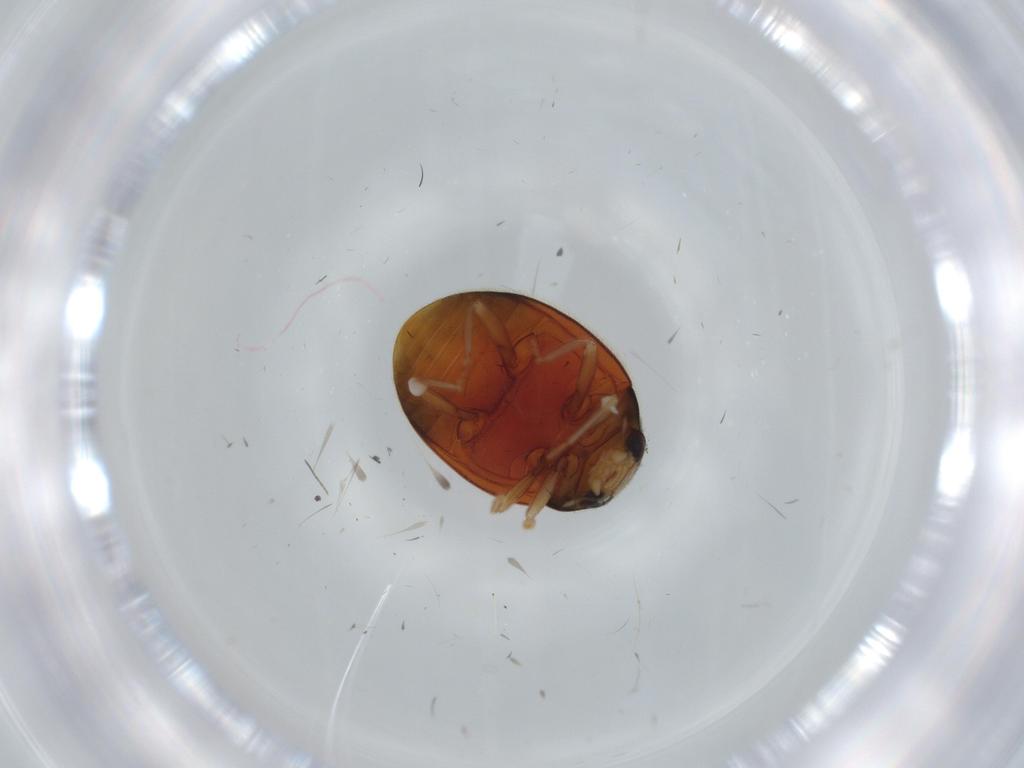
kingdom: Animalia
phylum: Arthropoda
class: Insecta
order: Coleoptera
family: Coccinellidae
